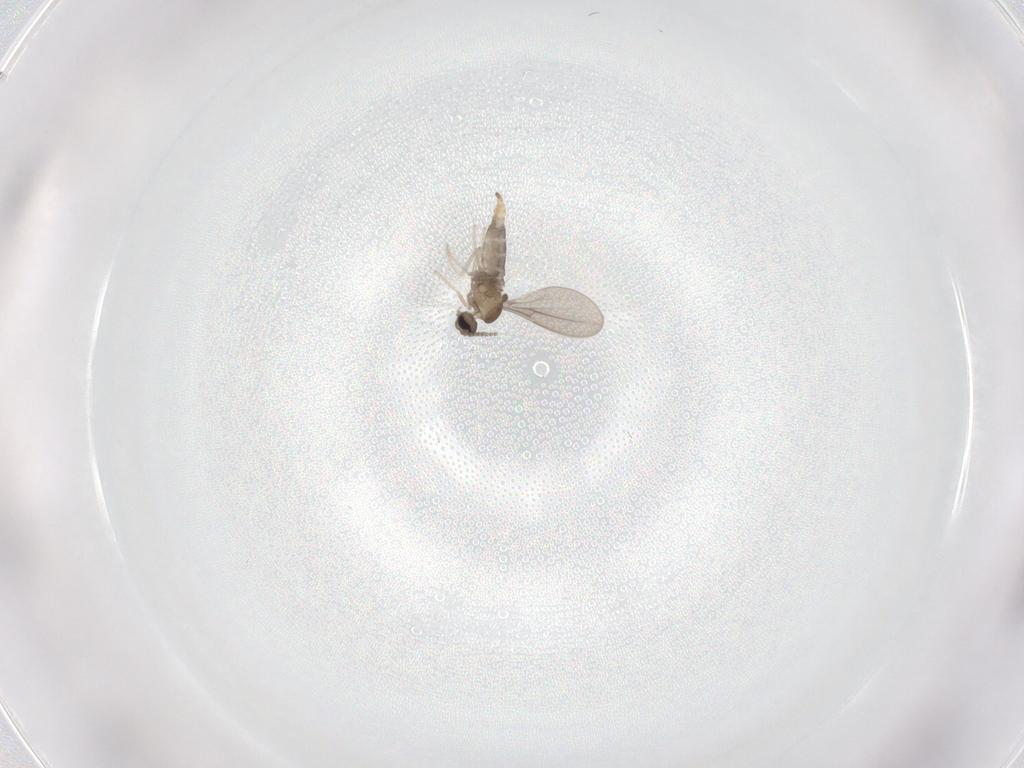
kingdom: Animalia
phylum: Arthropoda
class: Insecta
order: Diptera
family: Cecidomyiidae
